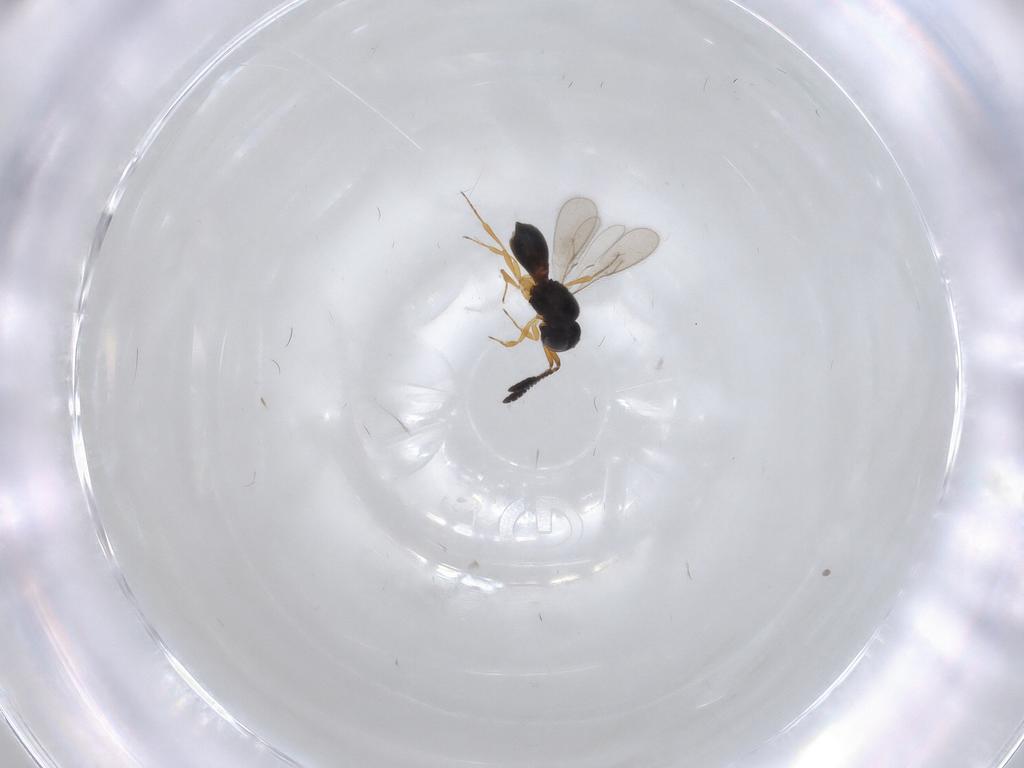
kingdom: Animalia
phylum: Arthropoda
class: Insecta
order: Hymenoptera
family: Scelionidae
